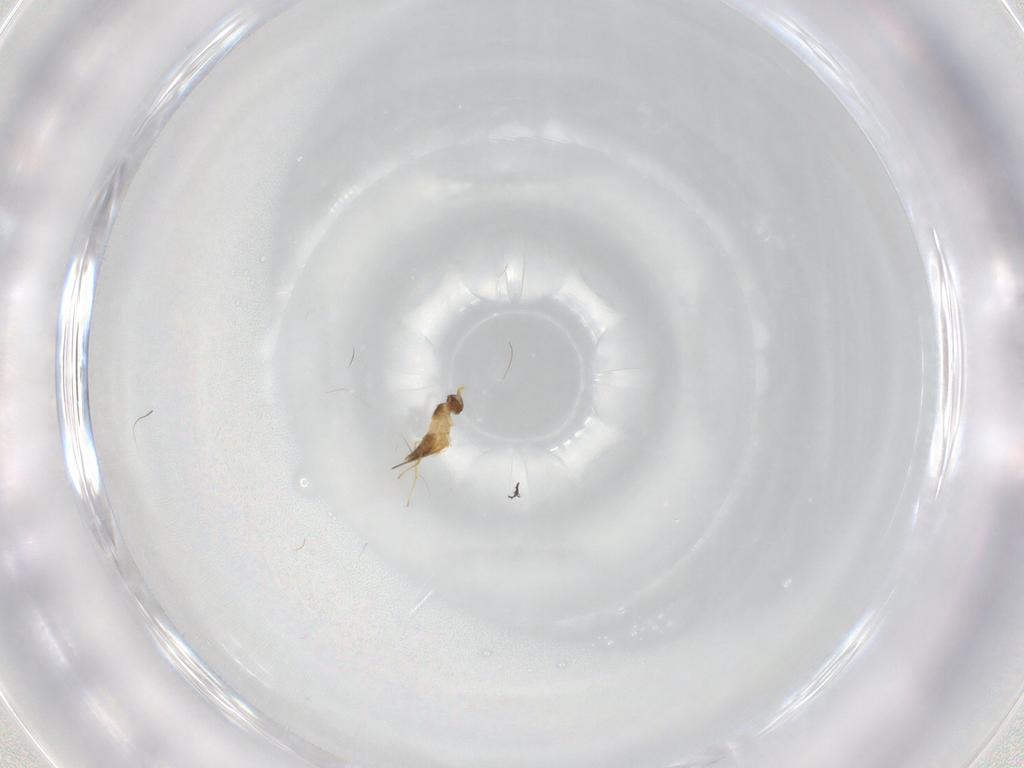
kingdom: Animalia
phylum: Arthropoda
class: Insecta
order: Hymenoptera
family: Mymaridae
